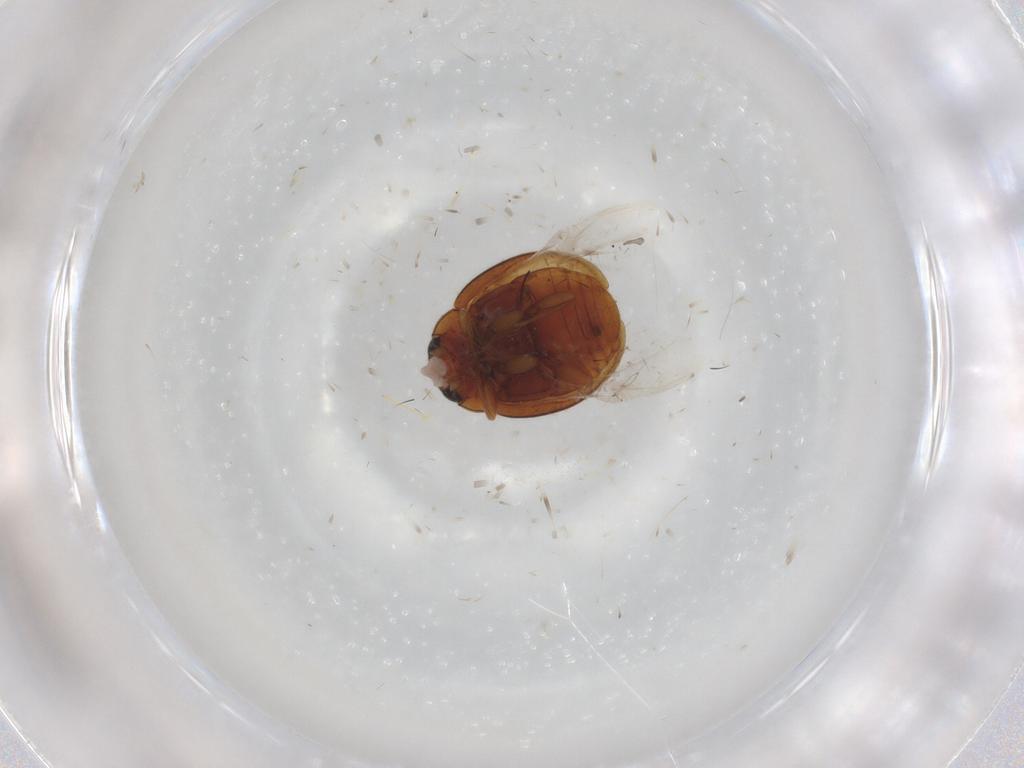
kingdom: Animalia
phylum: Arthropoda
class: Insecta
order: Coleoptera
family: Coccinellidae
